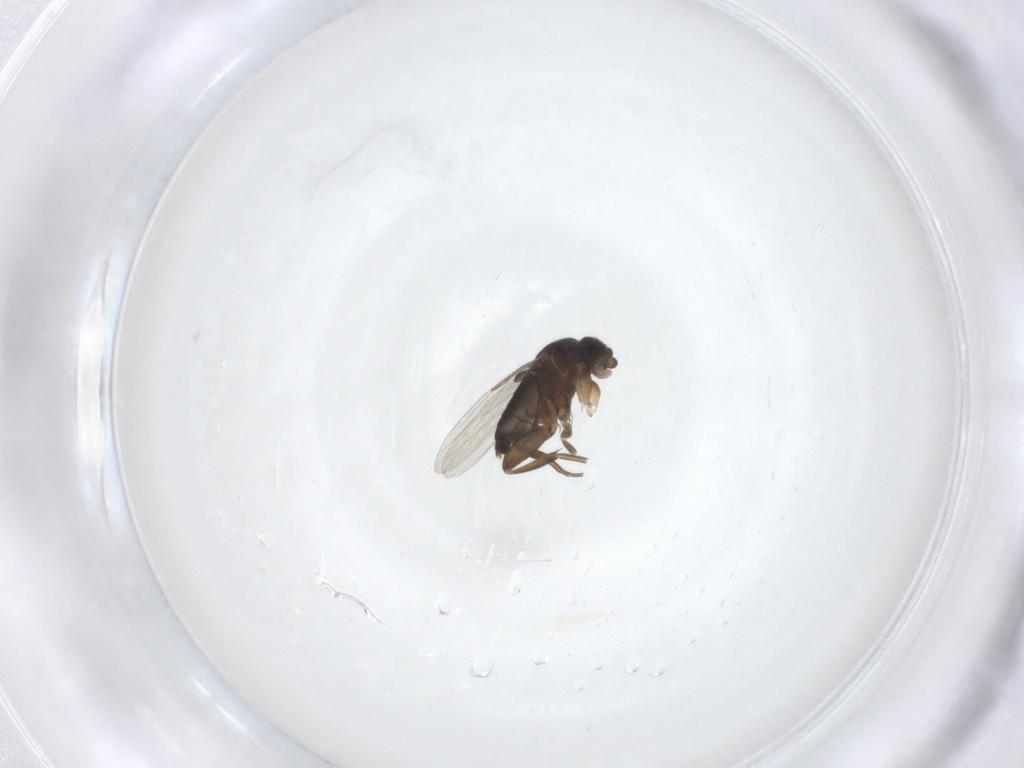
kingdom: Animalia
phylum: Arthropoda
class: Insecta
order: Diptera
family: Phoridae
